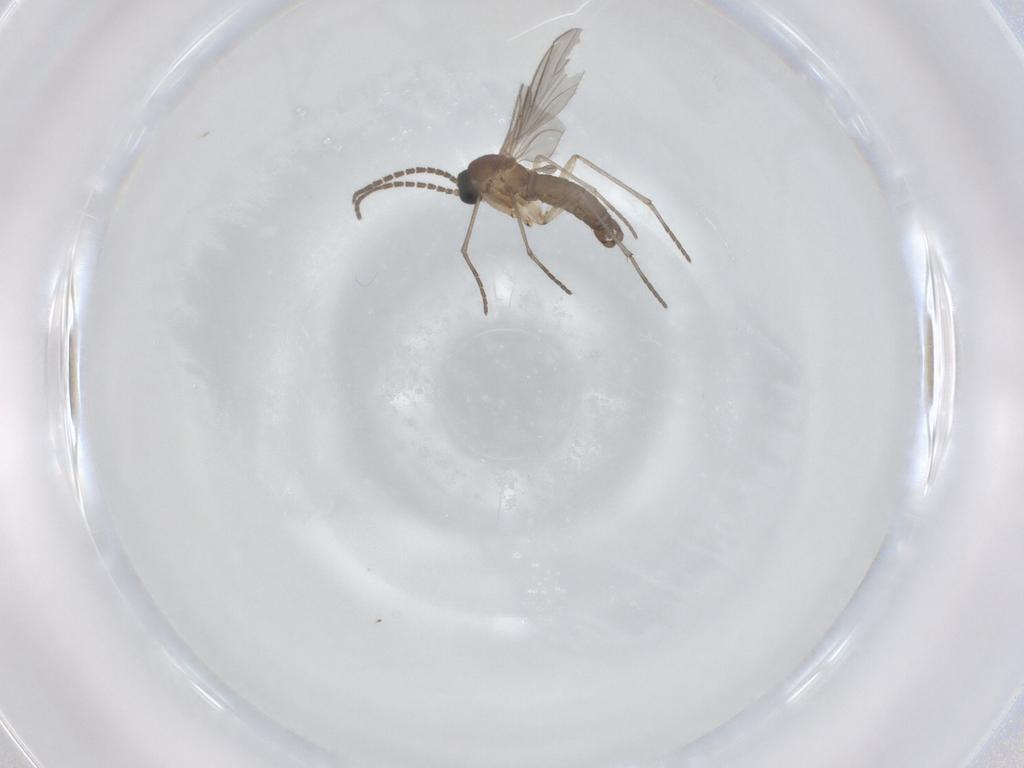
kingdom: Animalia
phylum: Arthropoda
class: Insecta
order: Diptera
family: Sciaridae
